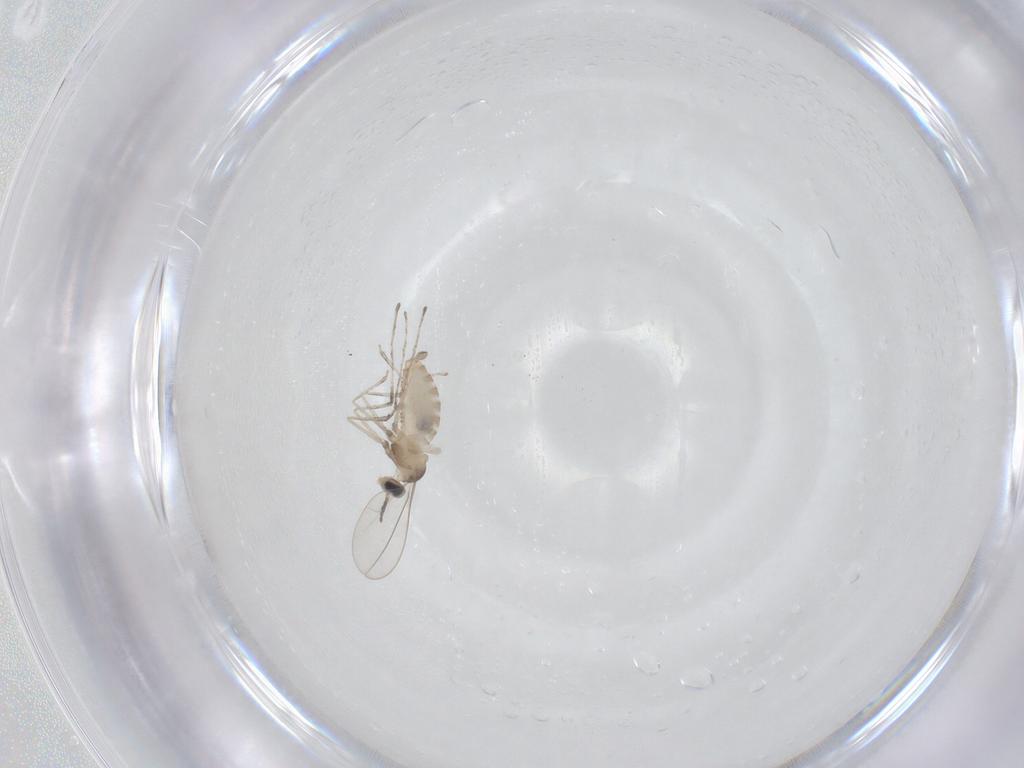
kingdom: Animalia
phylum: Arthropoda
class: Insecta
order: Diptera
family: Cecidomyiidae
